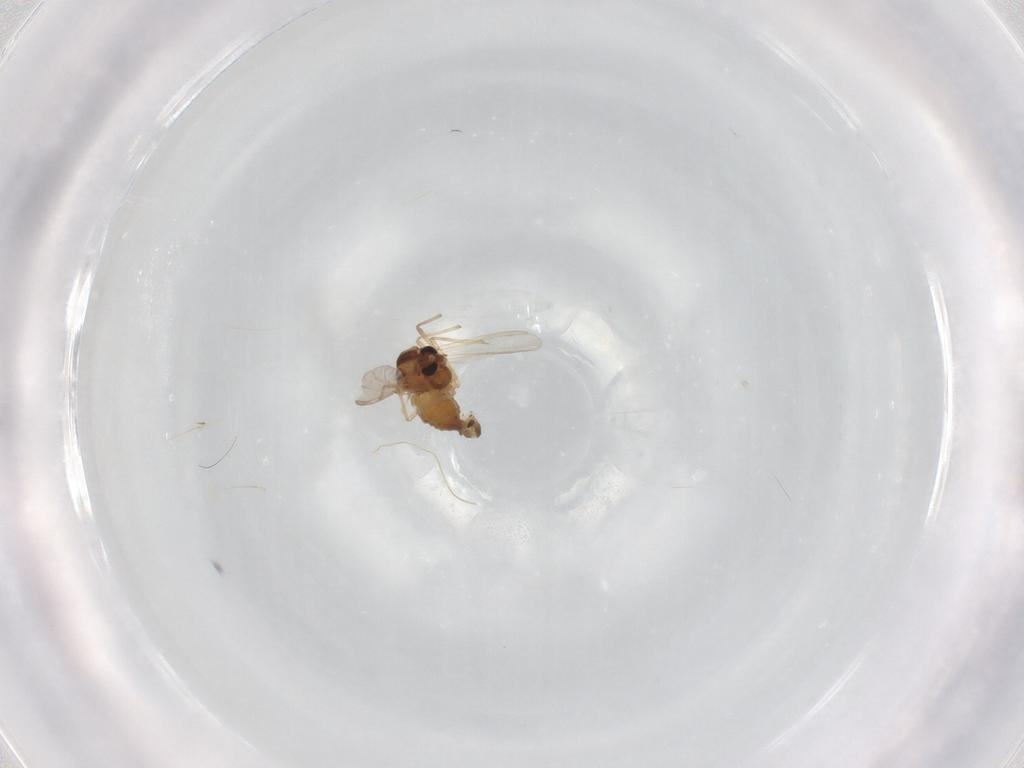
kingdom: Animalia
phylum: Arthropoda
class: Insecta
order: Diptera
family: Chironomidae
